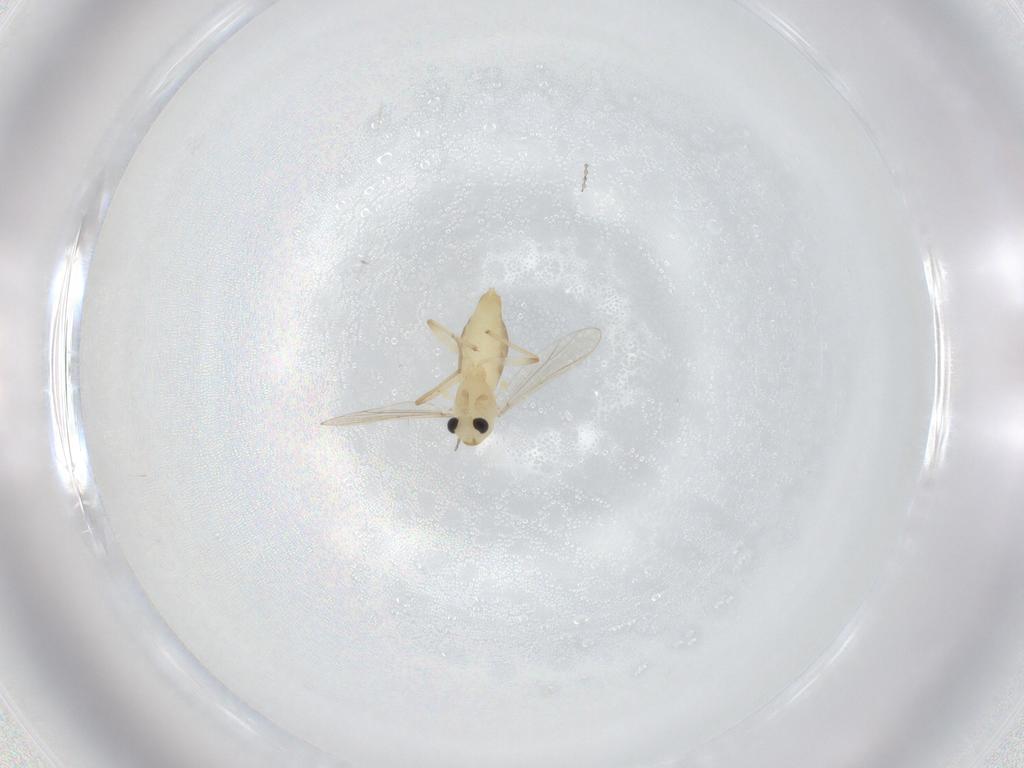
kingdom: Animalia
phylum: Arthropoda
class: Insecta
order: Diptera
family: Chironomidae
